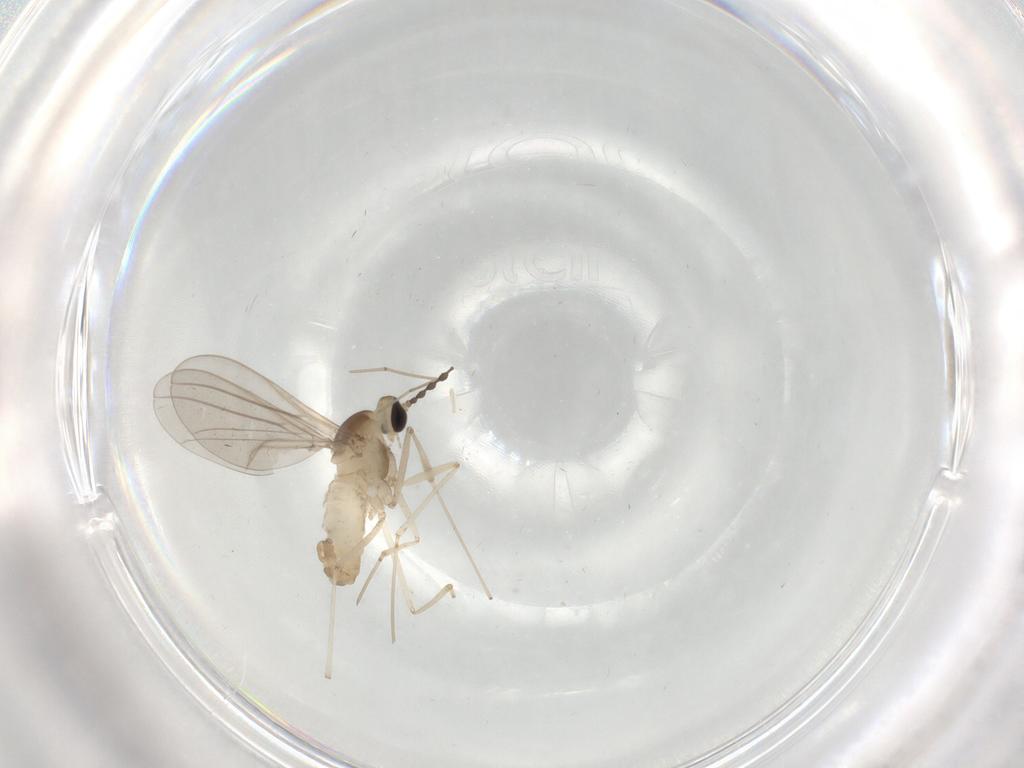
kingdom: Animalia
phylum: Arthropoda
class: Insecta
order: Diptera
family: Cecidomyiidae
